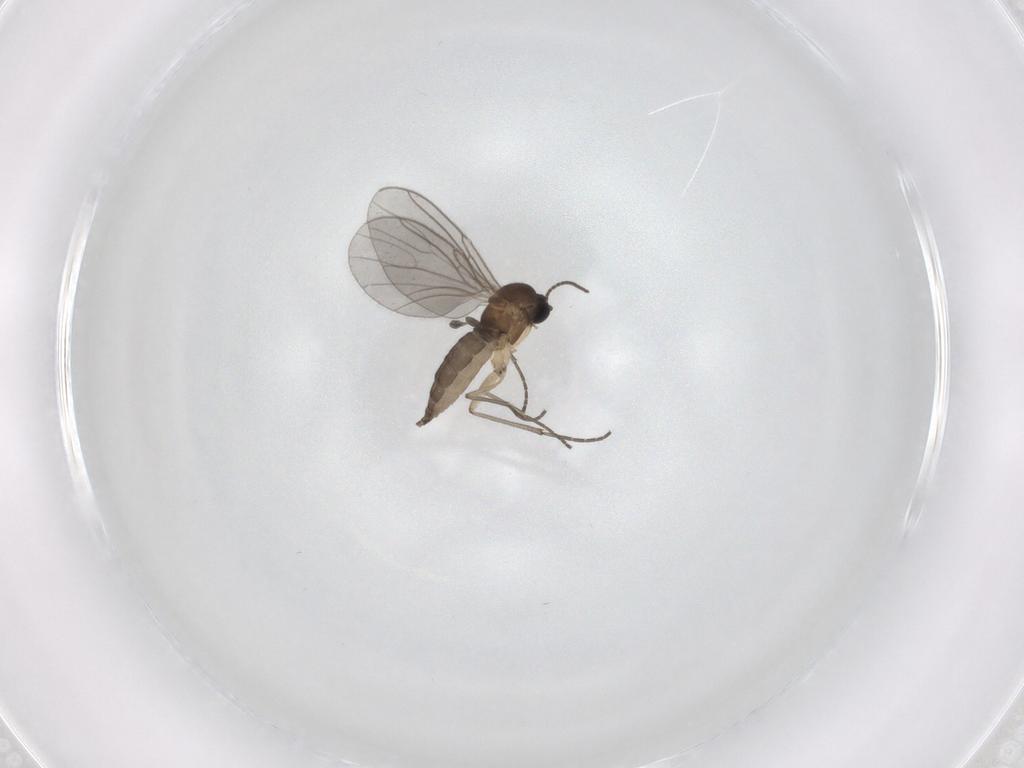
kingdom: Animalia
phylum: Arthropoda
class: Insecta
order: Diptera
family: Sciaridae
